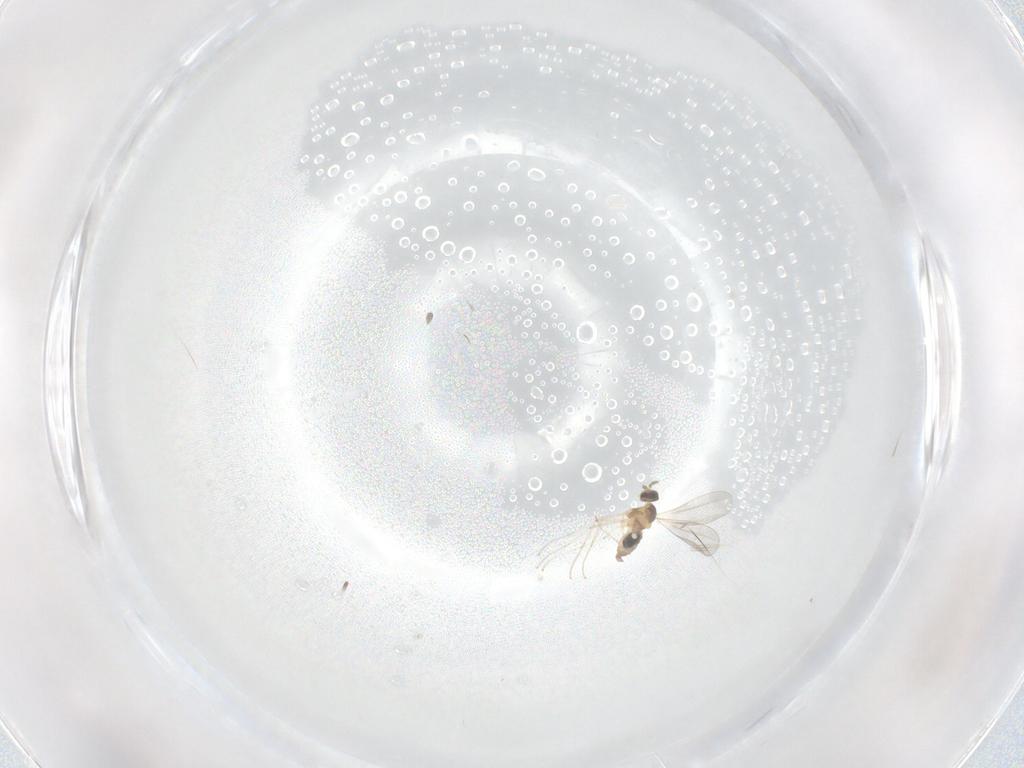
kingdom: Animalia
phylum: Arthropoda
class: Insecta
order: Diptera
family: Cecidomyiidae
